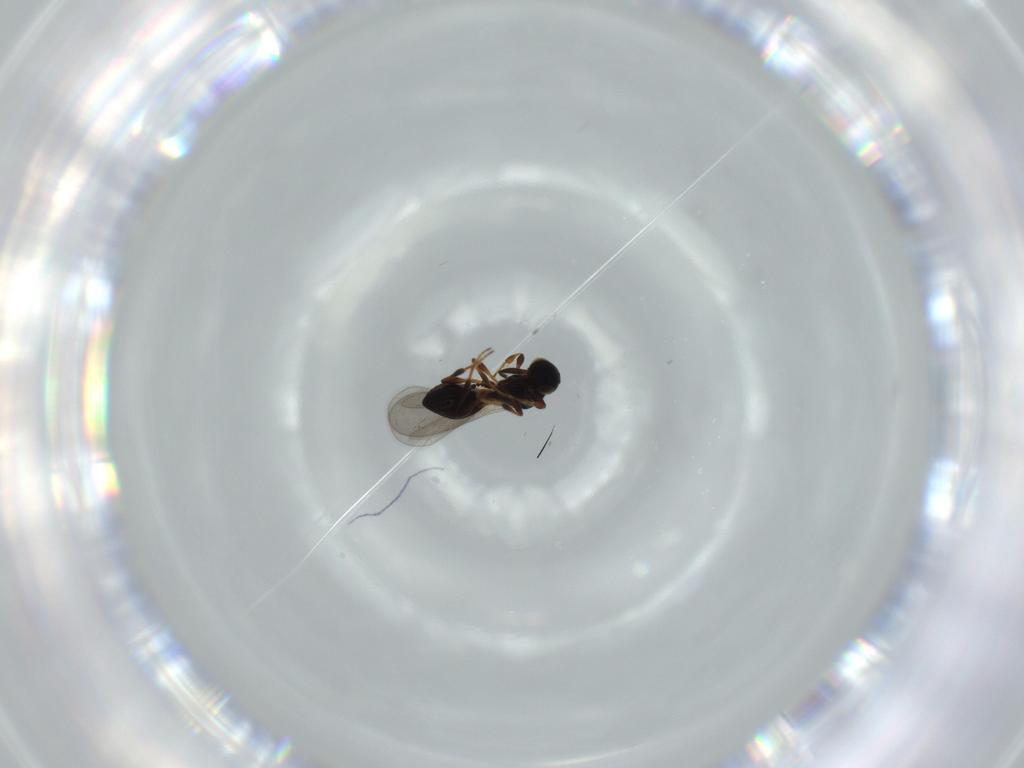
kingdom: Animalia
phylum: Arthropoda
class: Insecta
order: Hymenoptera
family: Platygastridae
